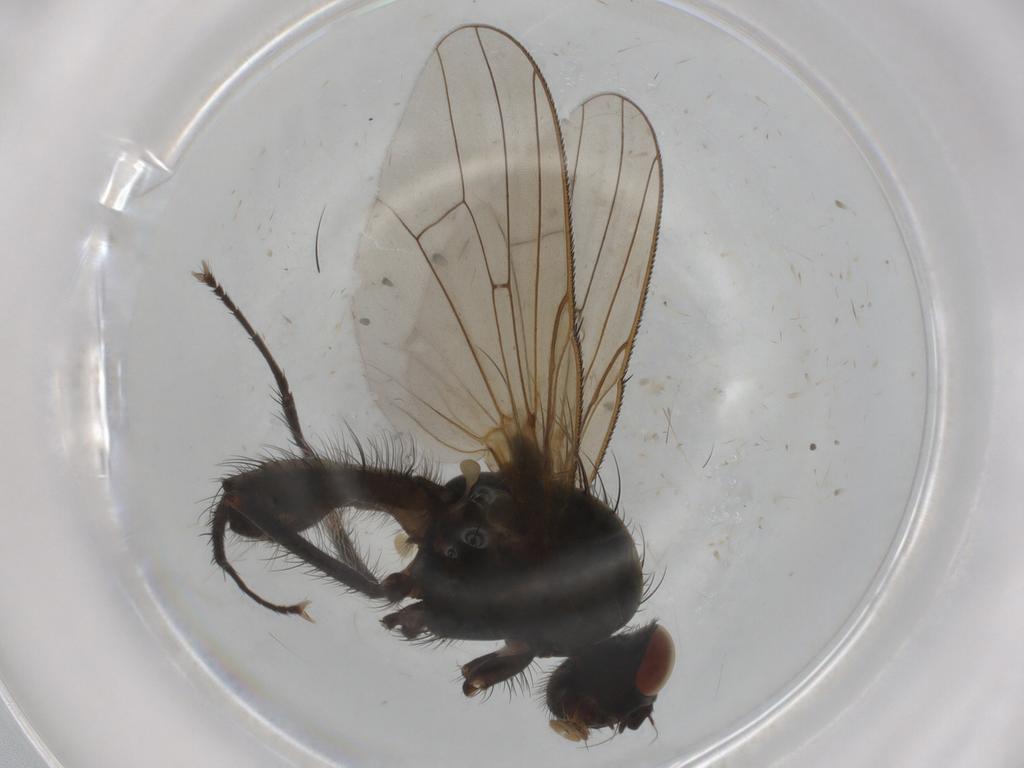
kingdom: Animalia
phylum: Arthropoda
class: Insecta
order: Diptera
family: Anthomyiidae
